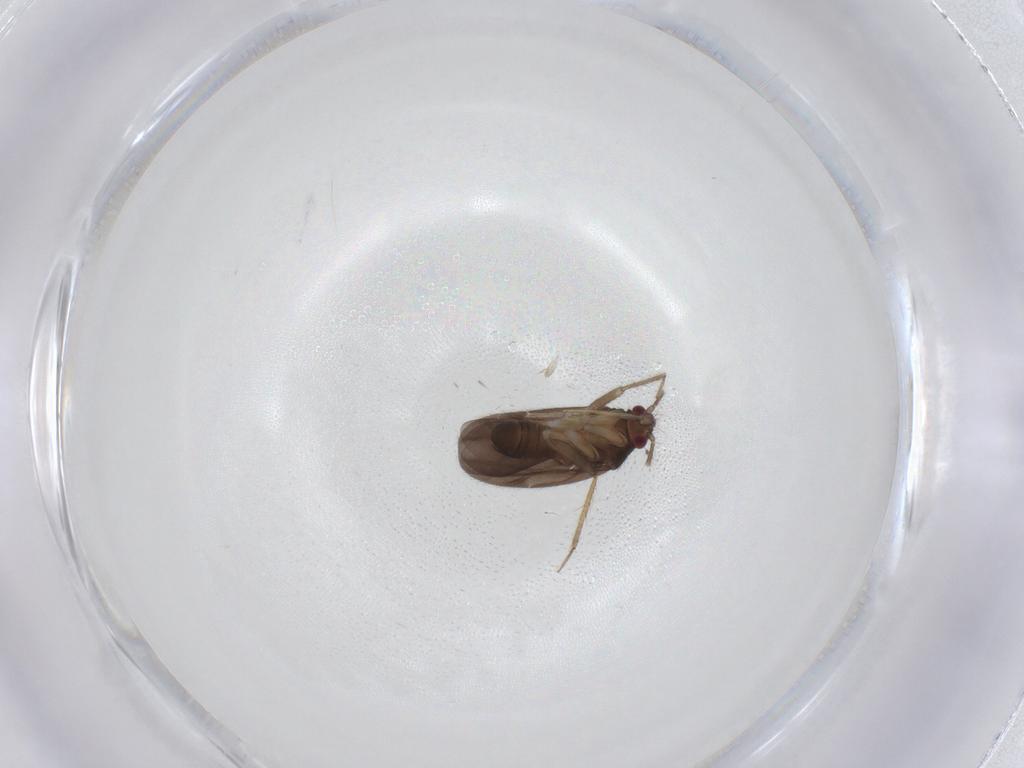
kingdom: Animalia
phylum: Arthropoda
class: Insecta
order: Hemiptera
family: Ceratocombidae
